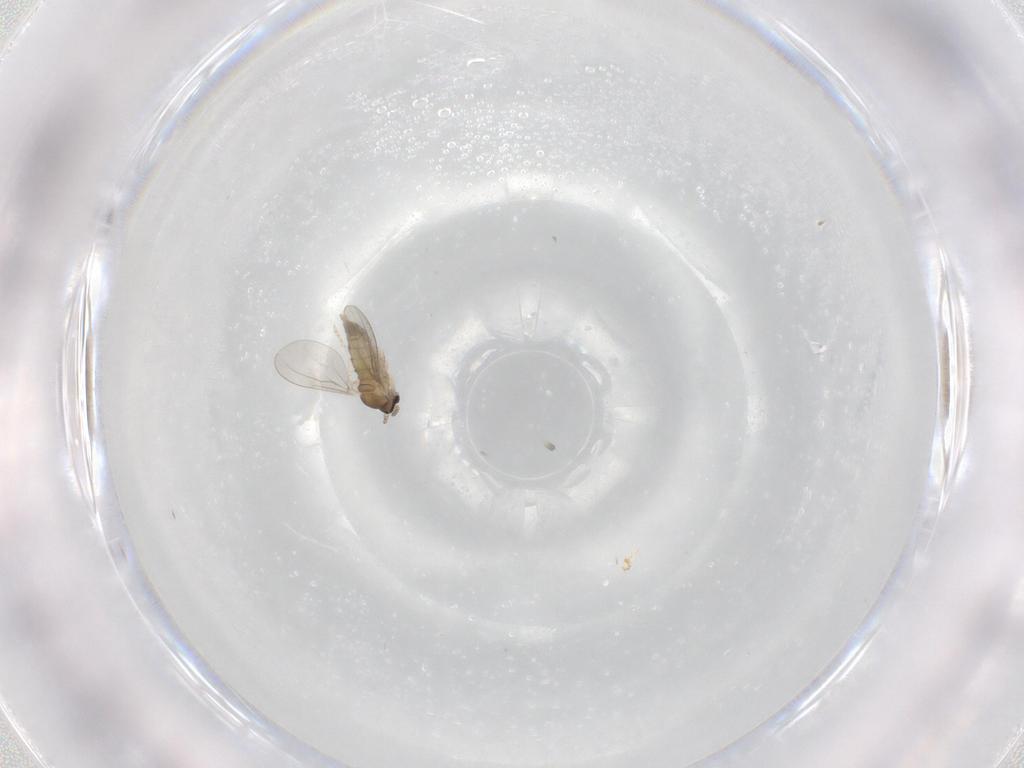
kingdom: Animalia
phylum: Arthropoda
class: Insecta
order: Diptera
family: Cecidomyiidae
